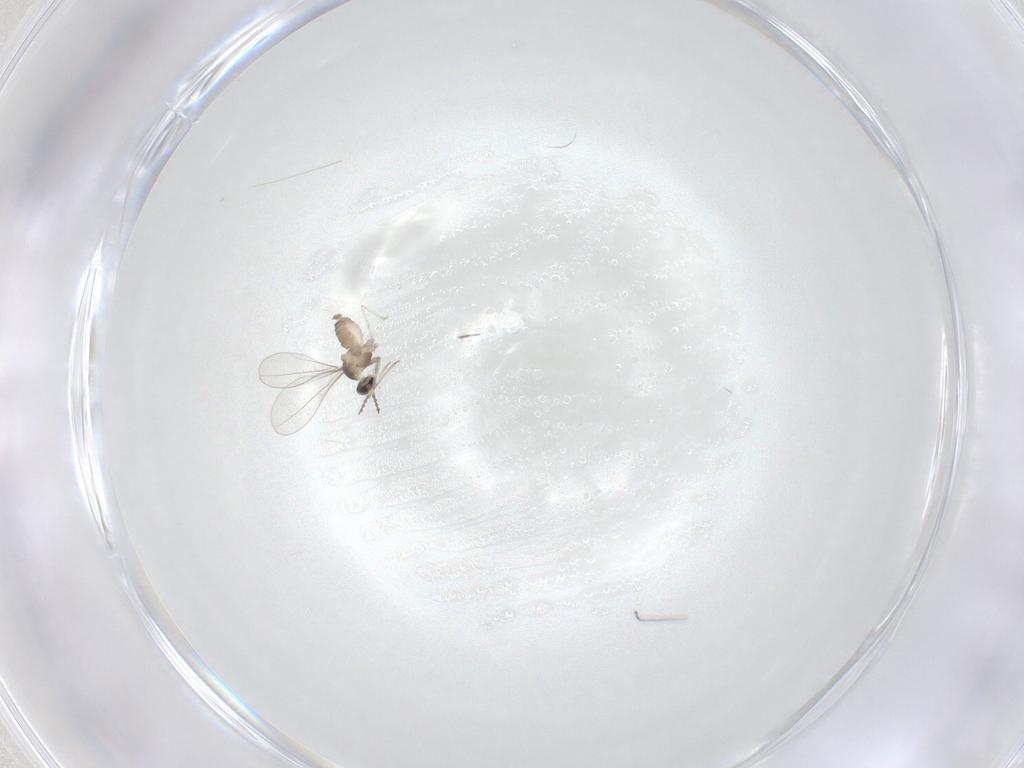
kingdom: Animalia
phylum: Arthropoda
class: Insecta
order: Diptera
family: Cecidomyiidae
